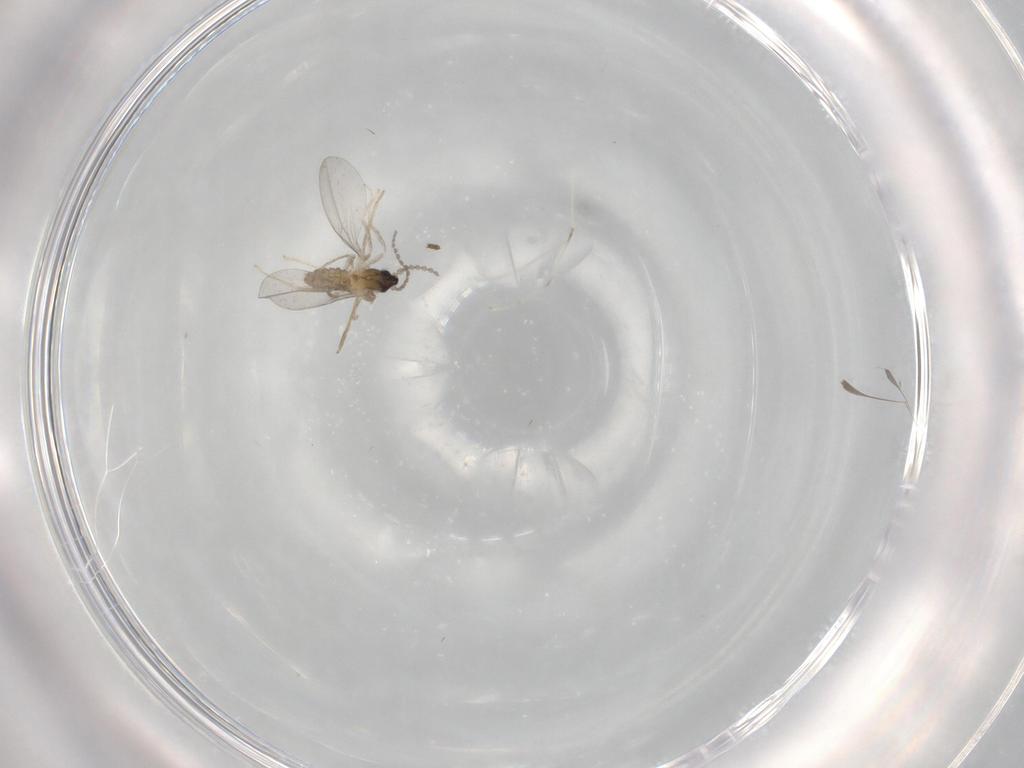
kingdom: Animalia
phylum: Arthropoda
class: Insecta
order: Diptera
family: Cecidomyiidae
